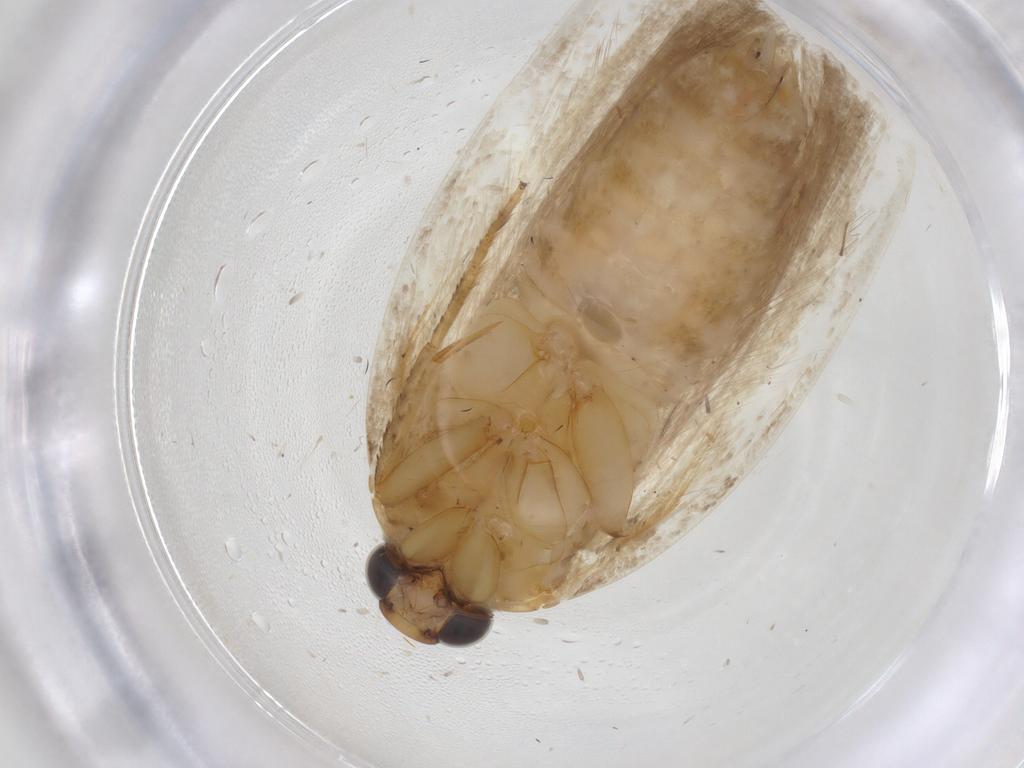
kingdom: Animalia
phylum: Arthropoda
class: Insecta
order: Lepidoptera
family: Gelechiidae
